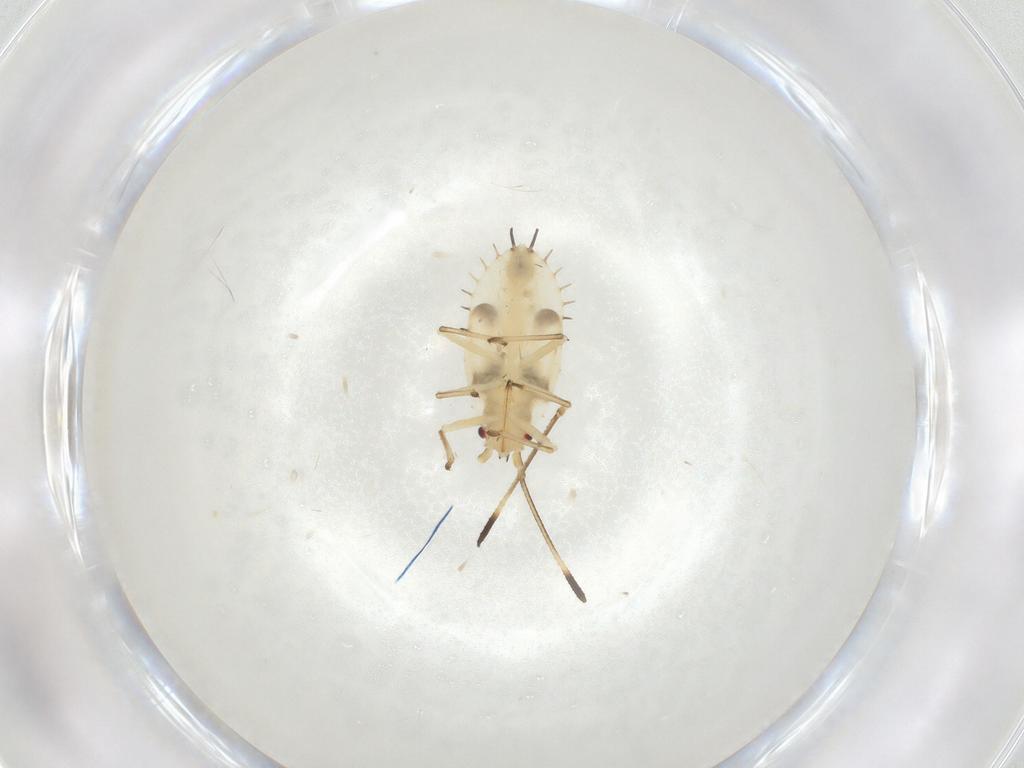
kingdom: Animalia
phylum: Arthropoda
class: Insecta
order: Hemiptera
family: Tingidae
